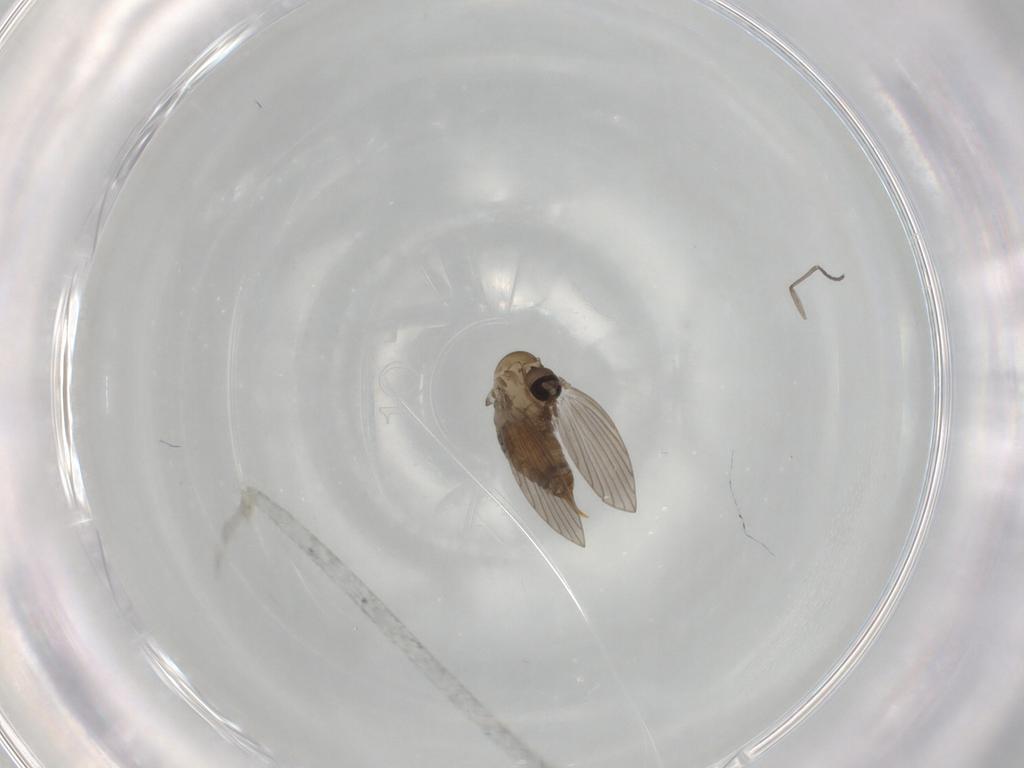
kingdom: Animalia
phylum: Arthropoda
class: Insecta
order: Diptera
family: Sciaridae
